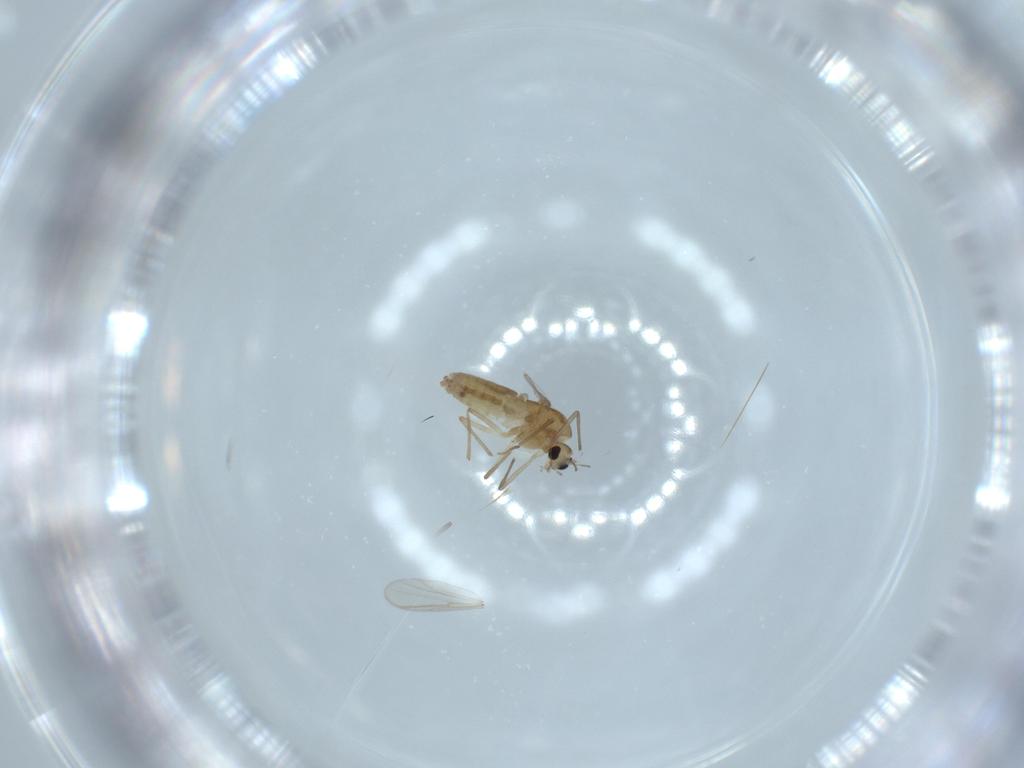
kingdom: Animalia
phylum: Arthropoda
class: Insecta
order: Diptera
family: Chironomidae
